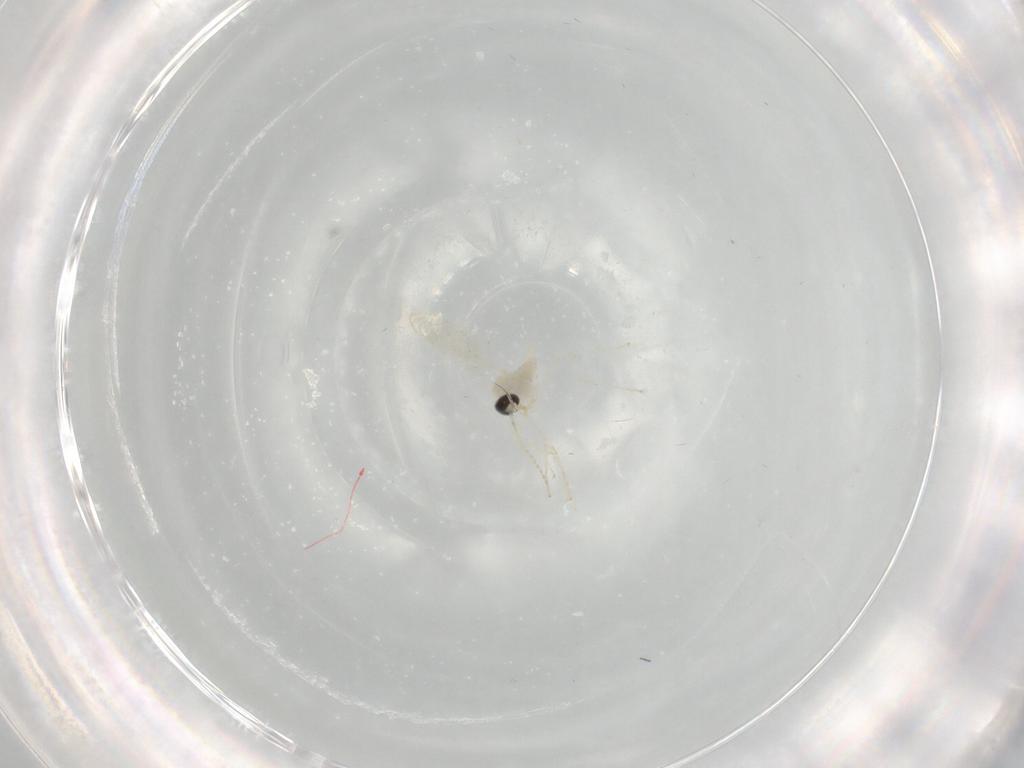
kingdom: Animalia
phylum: Arthropoda
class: Insecta
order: Diptera
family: Cecidomyiidae
